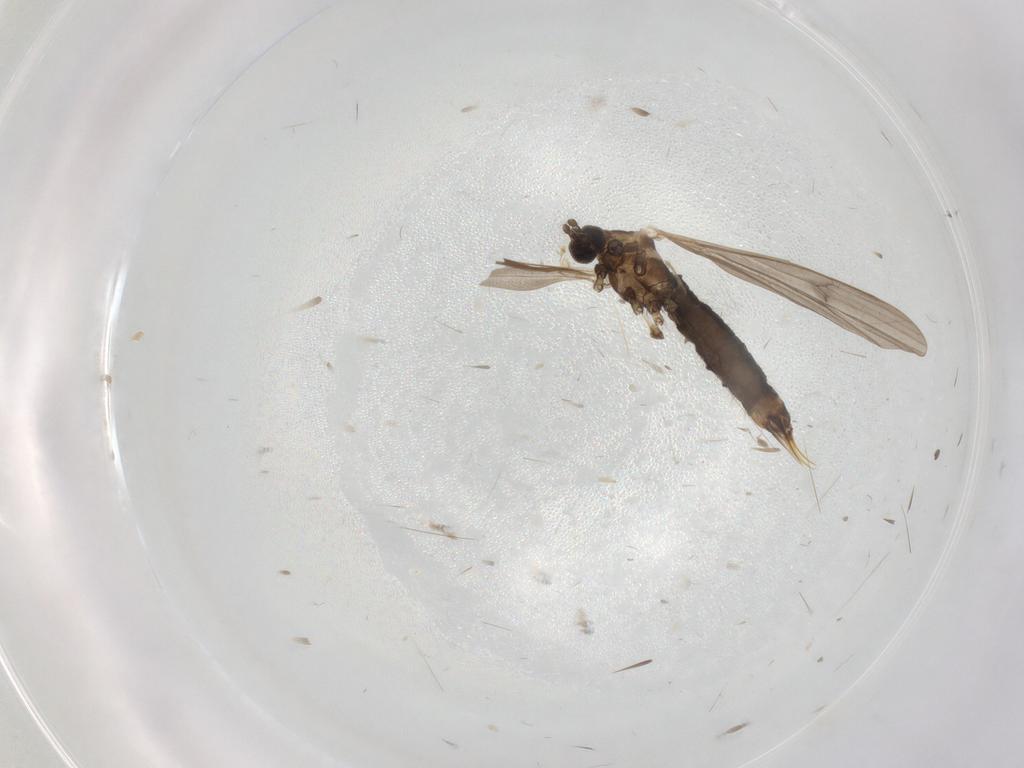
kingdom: Animalia
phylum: Arthropoda
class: Insecta
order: Diptera
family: Limoniidae
